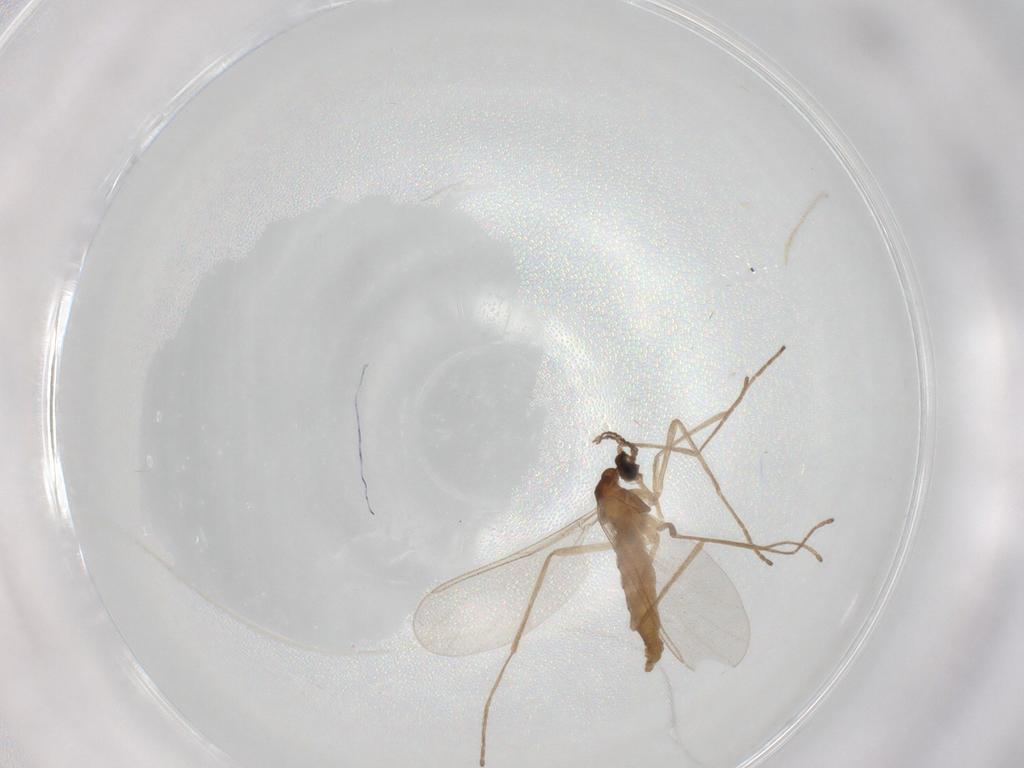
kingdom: Animalia
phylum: Arthropoda
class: Insecta
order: Diptera
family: Cecidomyiidae
